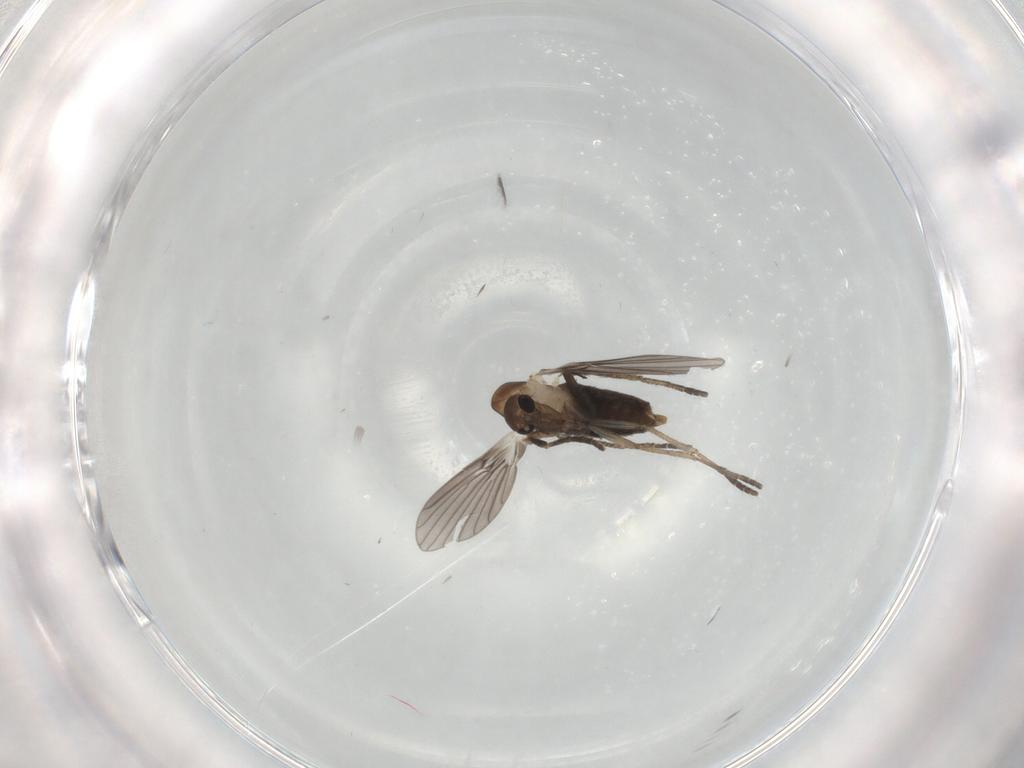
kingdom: Animalia
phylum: Arthropoda
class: Insecta
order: Diptera
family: Psychodidae
